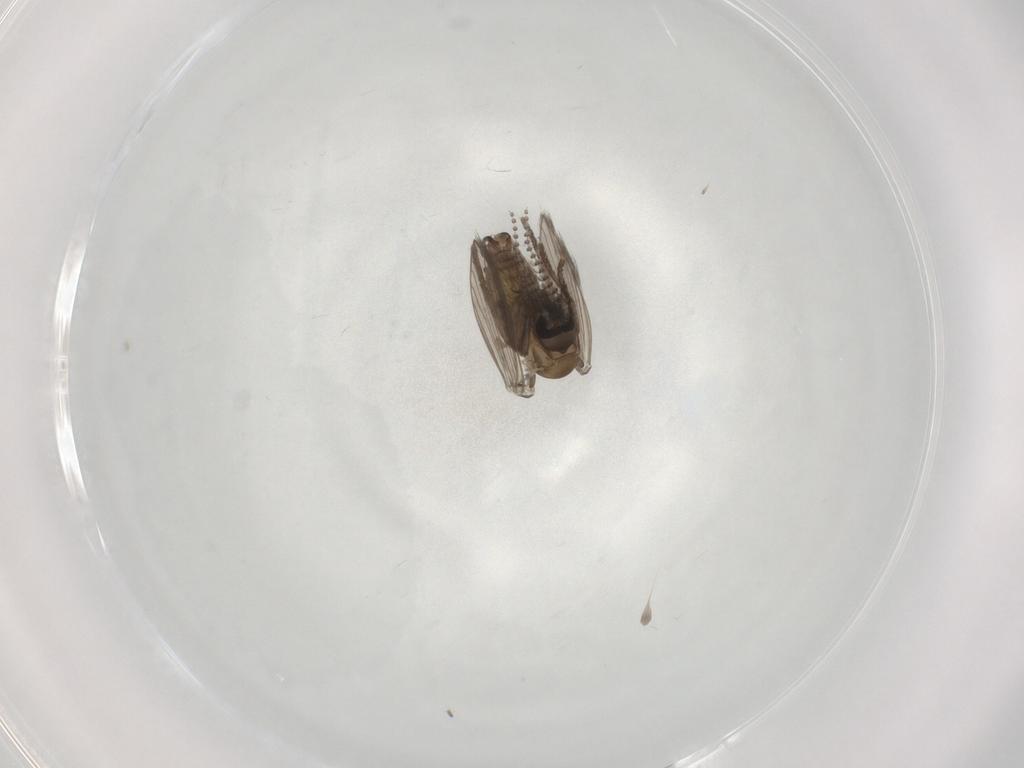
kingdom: Animalia
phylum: Arthropoda
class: Insecta
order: Diptera
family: Psychodidae
